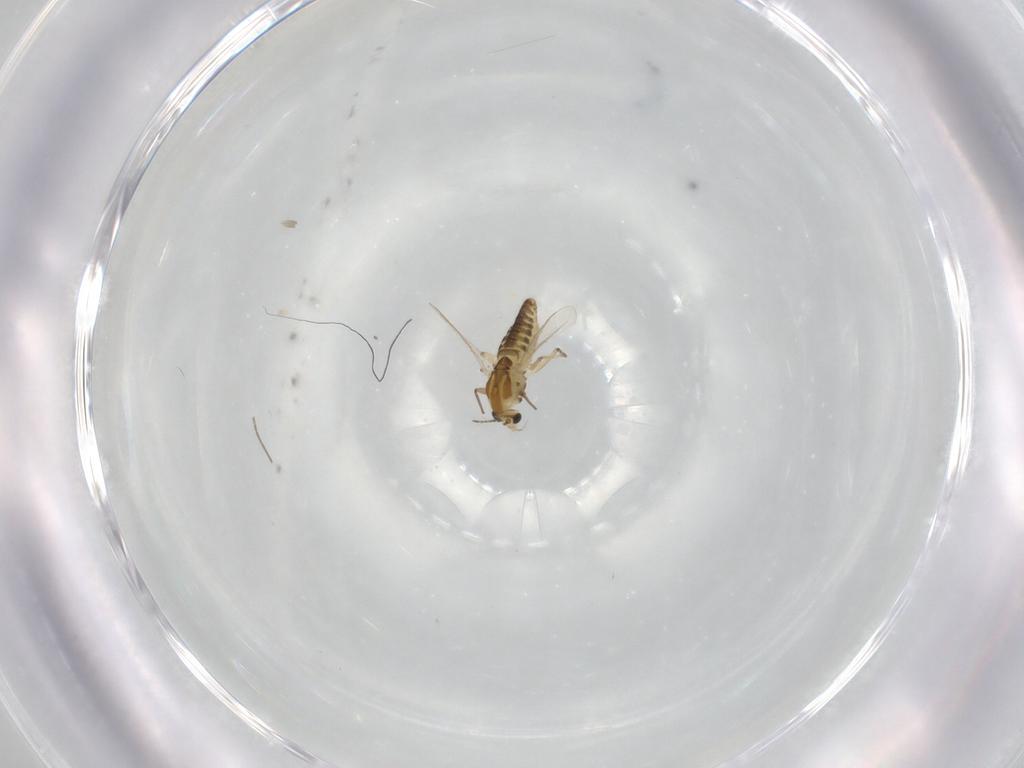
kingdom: Animalia
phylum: Arthropoda
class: Insecta
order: Diptera
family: Chironomidae
